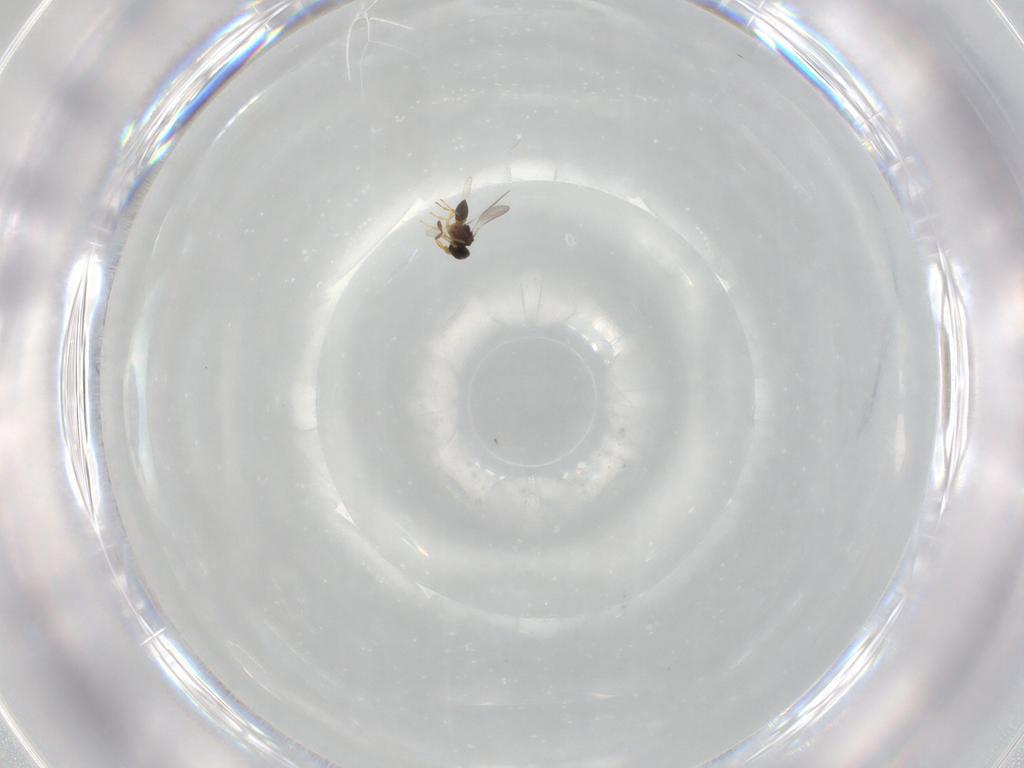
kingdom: Animalia
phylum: Arthropoda
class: Insecta
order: Hymenoptera
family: Platygastridae
